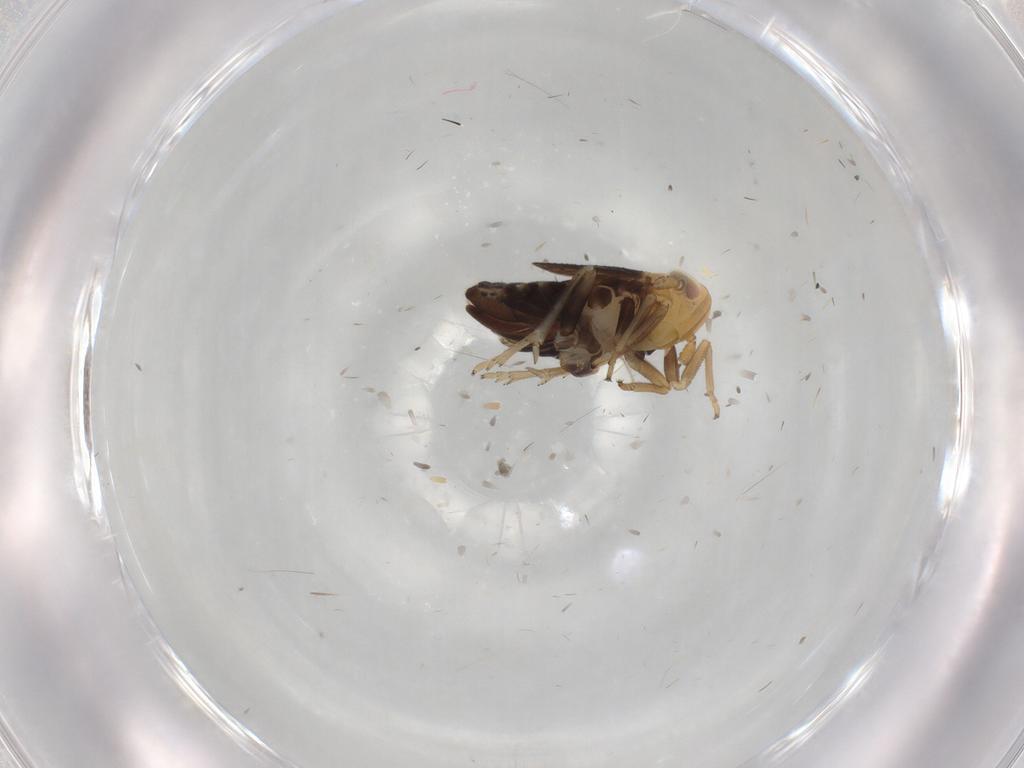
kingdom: Animalia
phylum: Arthropoda
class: Insecta
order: Hemiptera
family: Delphacidae
